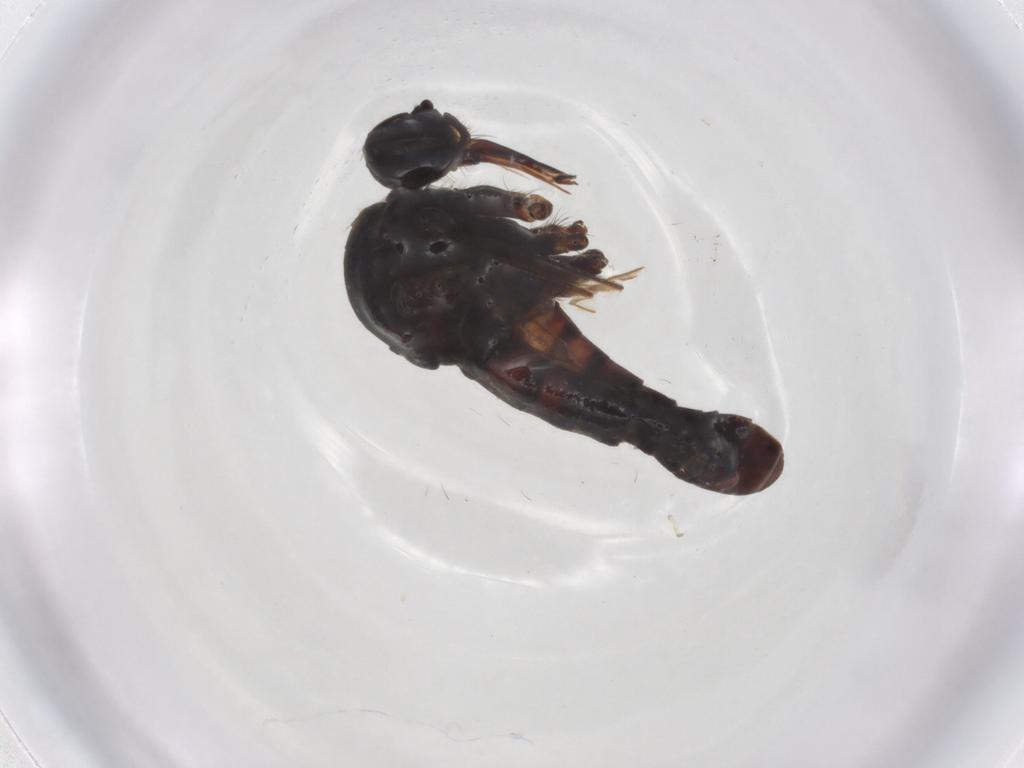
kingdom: Animalia
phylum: Arthropoda
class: Insecta
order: Diptera
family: Tachinidae
